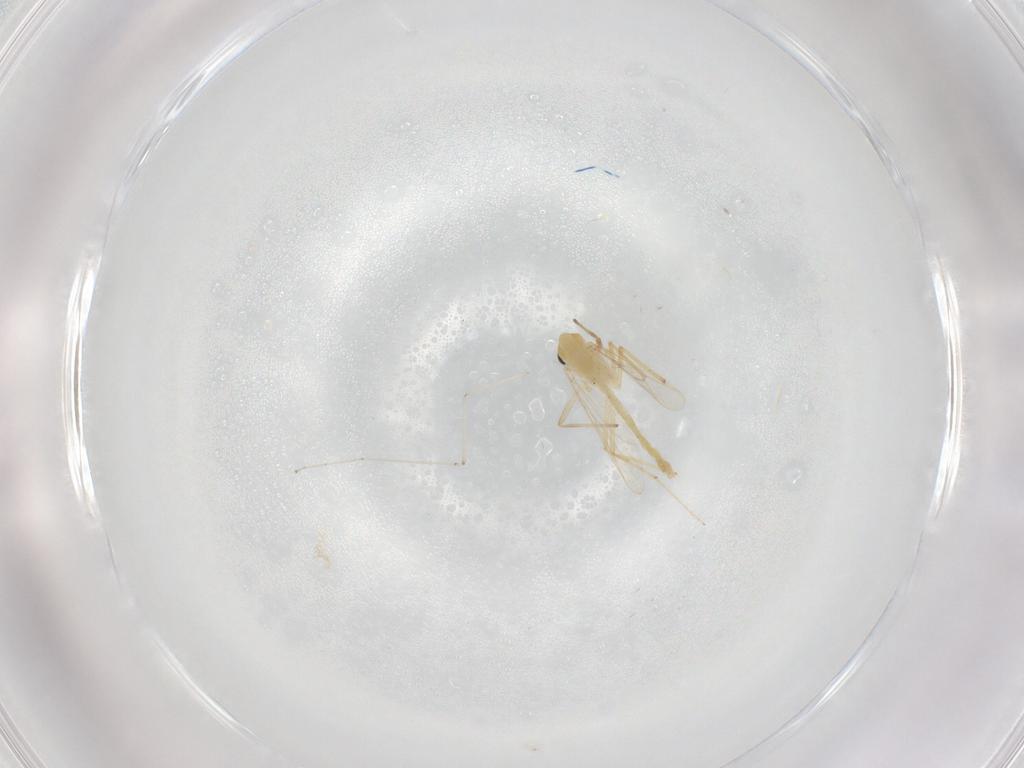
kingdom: Animalia
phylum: Arthropoda
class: Insecta
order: Diptera
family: Chironomidae
